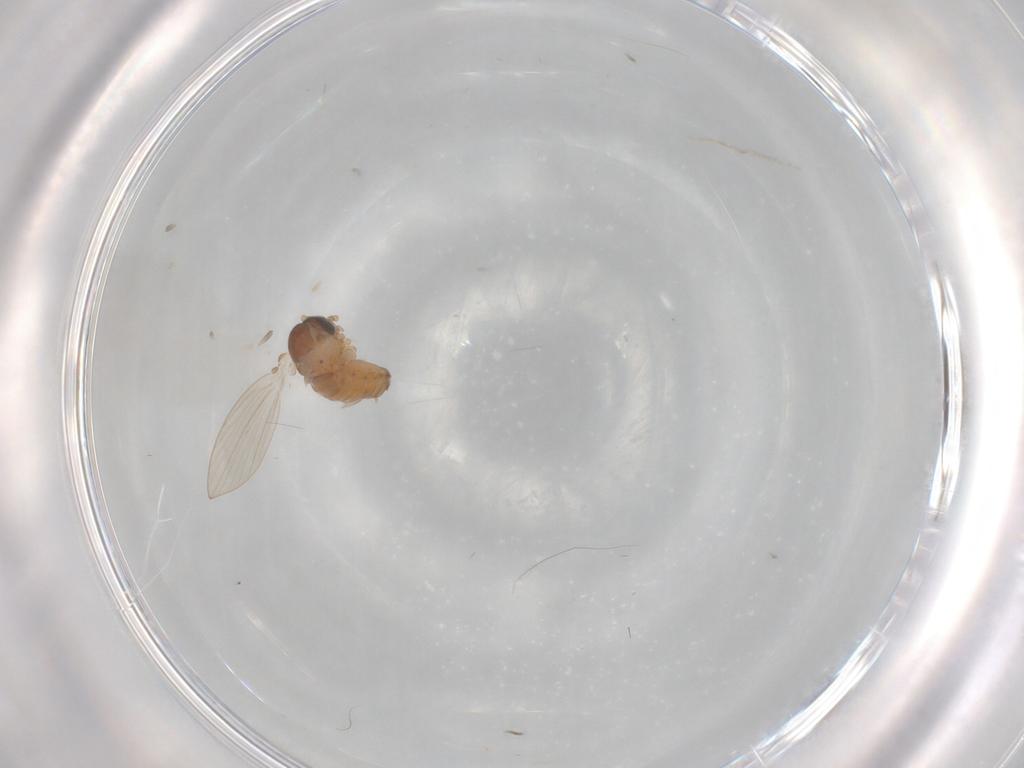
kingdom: Animalia
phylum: Arthropoda
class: Insecta
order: Diptera
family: Psychodidae
